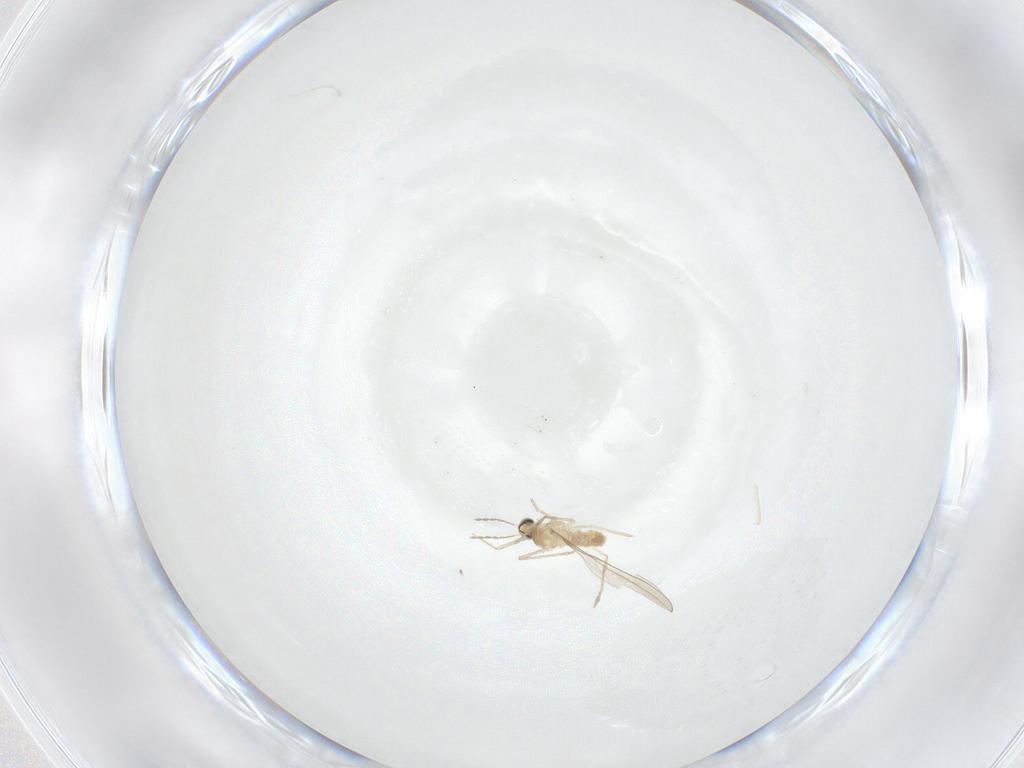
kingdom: Animalia
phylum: Arthropoda
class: Insecta
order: Diptera
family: Cecidomyiidae
